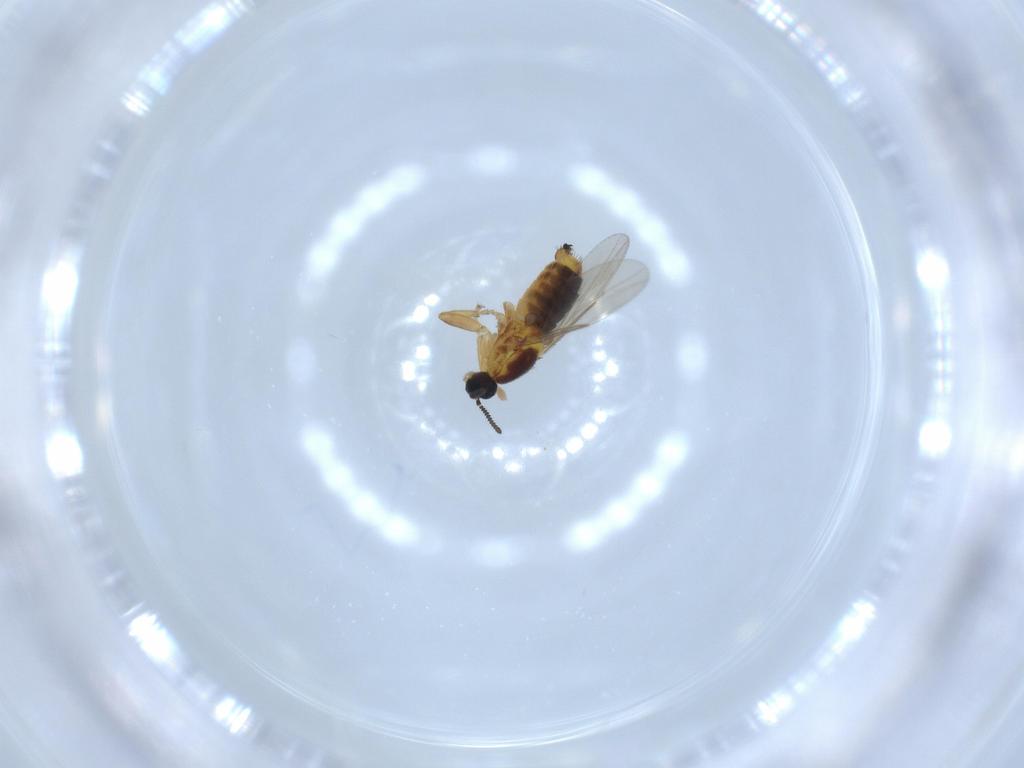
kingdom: Animalia
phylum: Arthropoda
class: Insecta
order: Diptera
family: Scatopsidae
